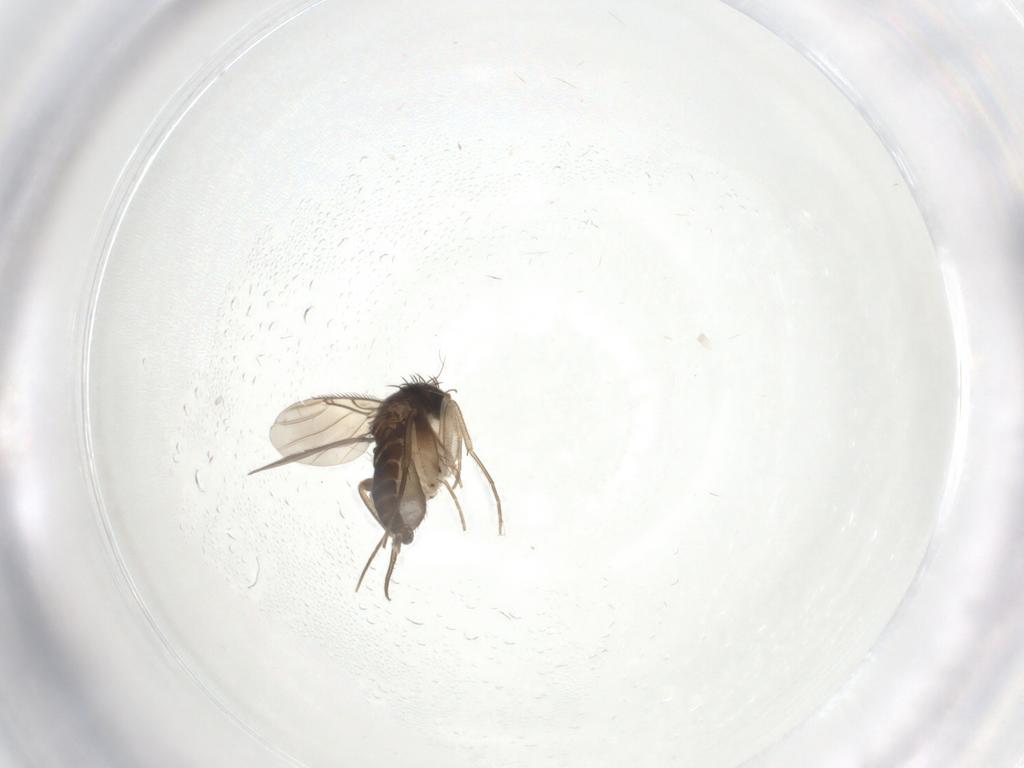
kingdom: Animalia
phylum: Arthropoda
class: Insecta
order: Diptera
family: Phoridae
